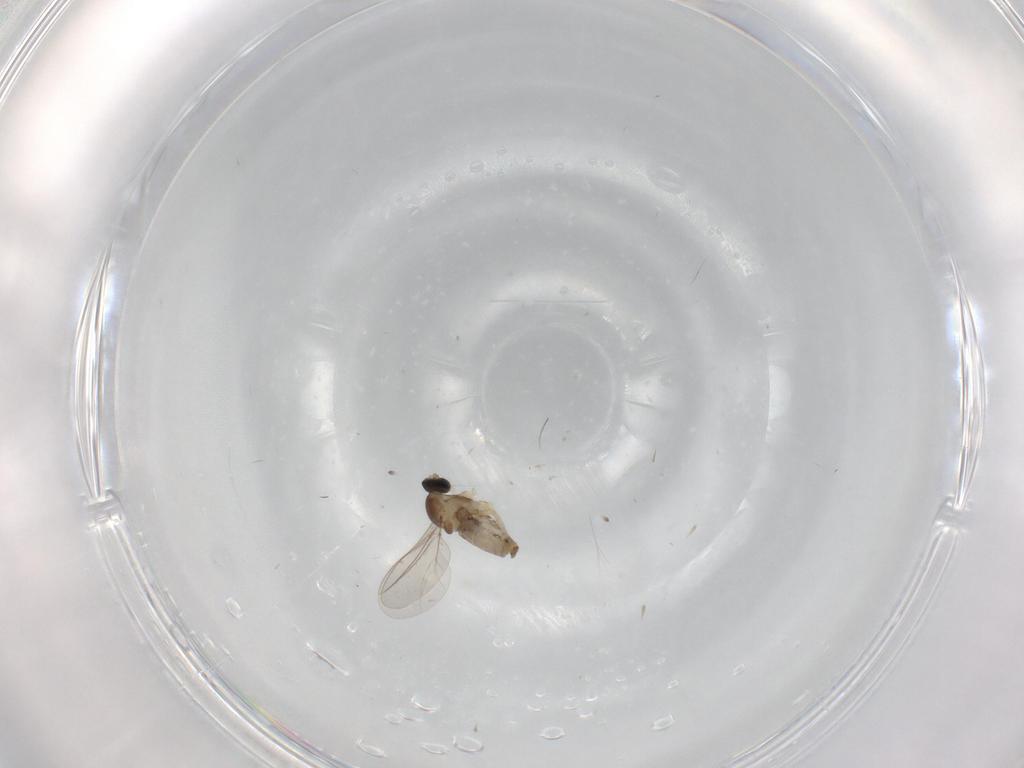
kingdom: Animalia
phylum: Arthropoda
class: Insecta
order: Diptera
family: Cecidomyiidae
